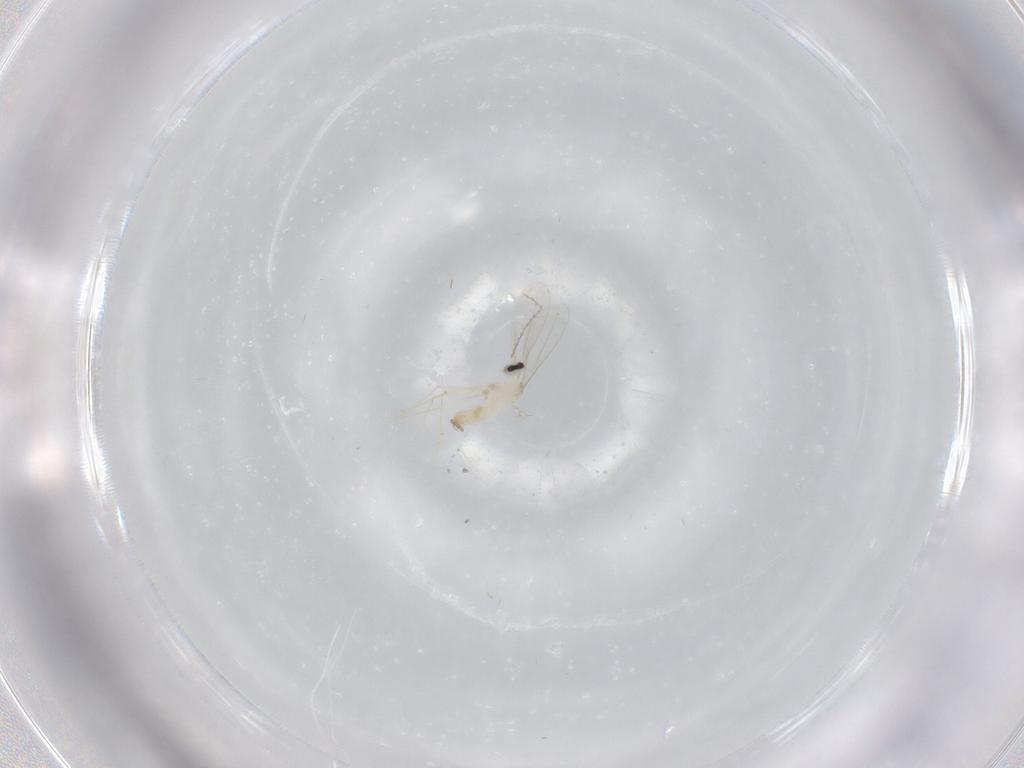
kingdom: Animalia
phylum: Arthropoda
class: Insecta
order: Diptera
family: Cecidomyiidae
